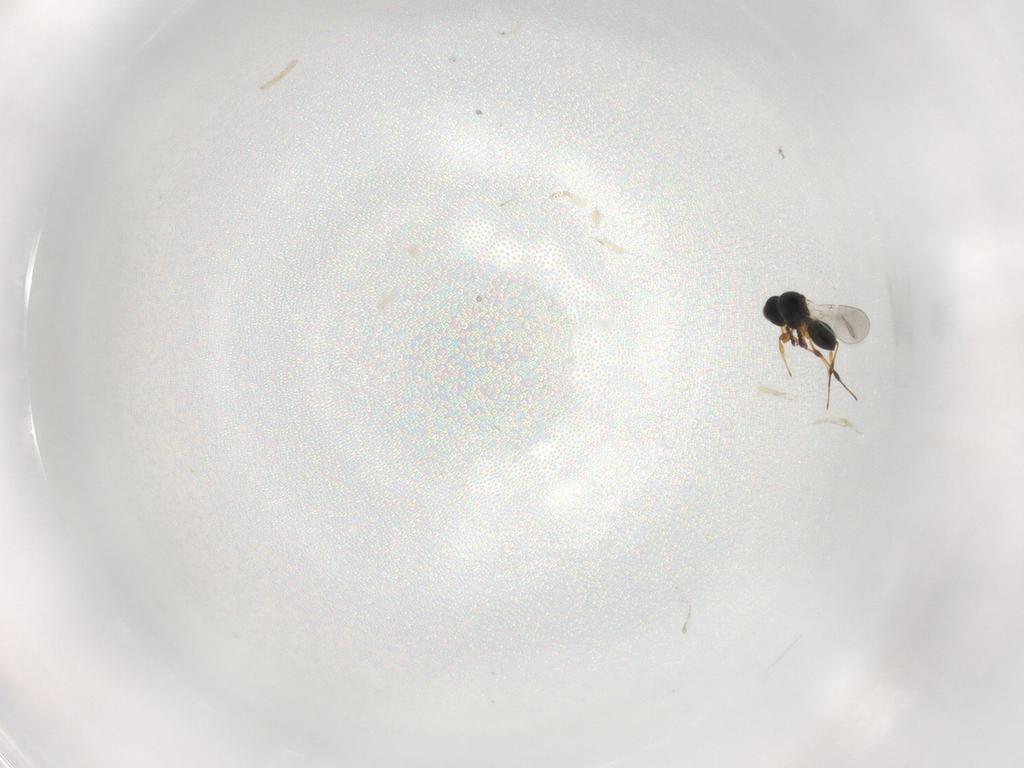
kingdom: Animalia
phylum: Arthropoda
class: Insecta
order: Hymenoptera
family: Platygastridae
